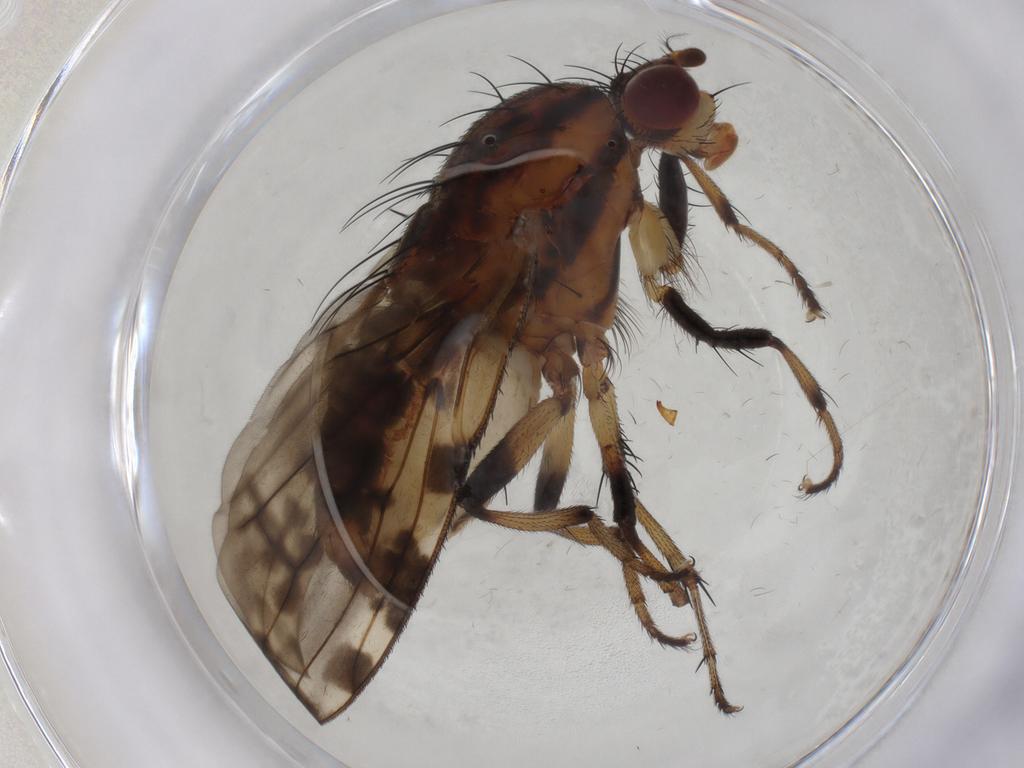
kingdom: Animalia
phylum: Arthropoda
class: Insecta
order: Diptera
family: Heleomyzidae
